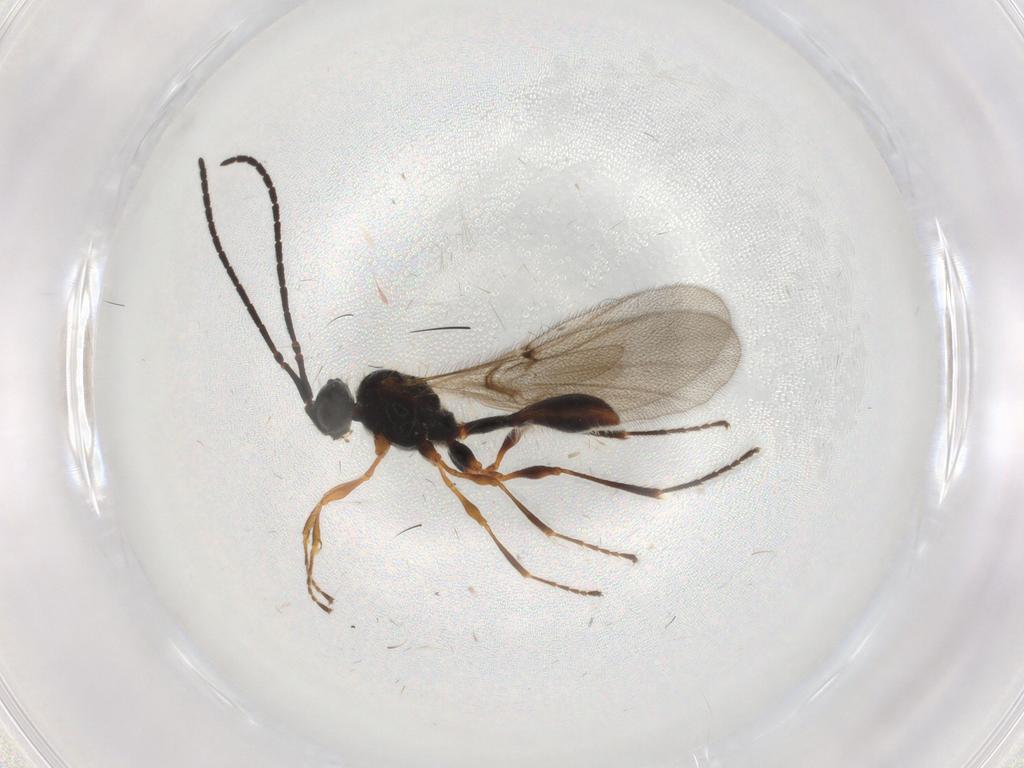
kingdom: Animalia
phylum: Arthropoda
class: Insecta
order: Hymenoptera
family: Diapriidae
